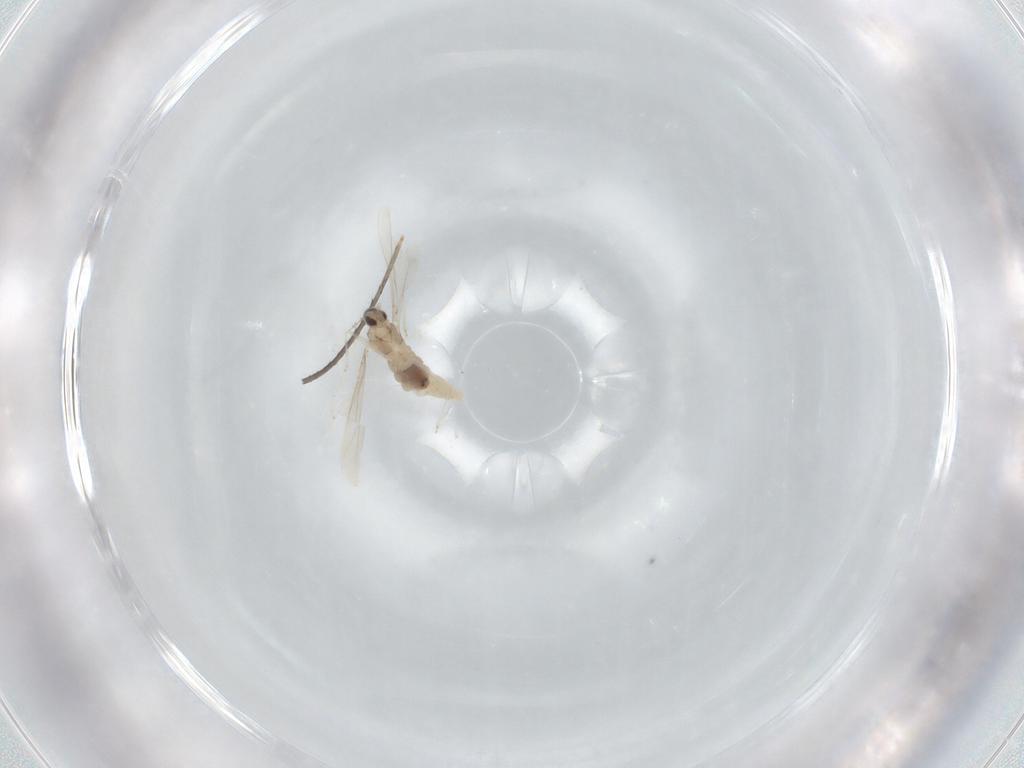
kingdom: Animalia
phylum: Arthropoda
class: Insecta
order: Diptera
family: Cecidomyiidae
